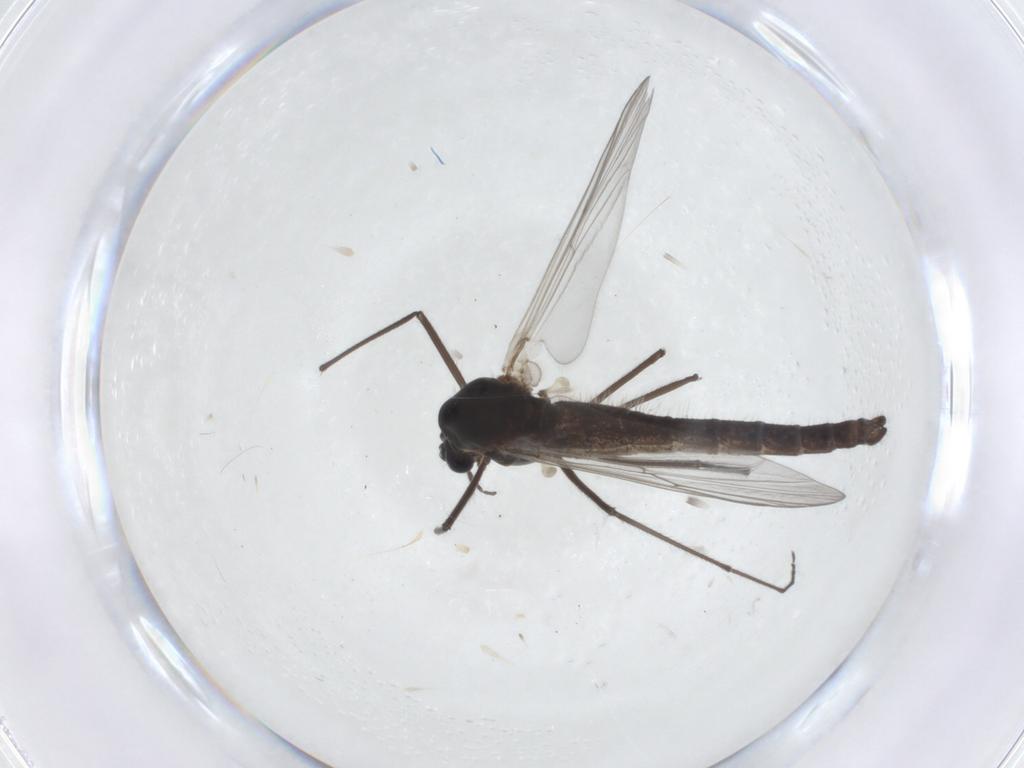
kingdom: Animalia
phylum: Arthropoda
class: Insecta
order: Diptera
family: Chironomidae
